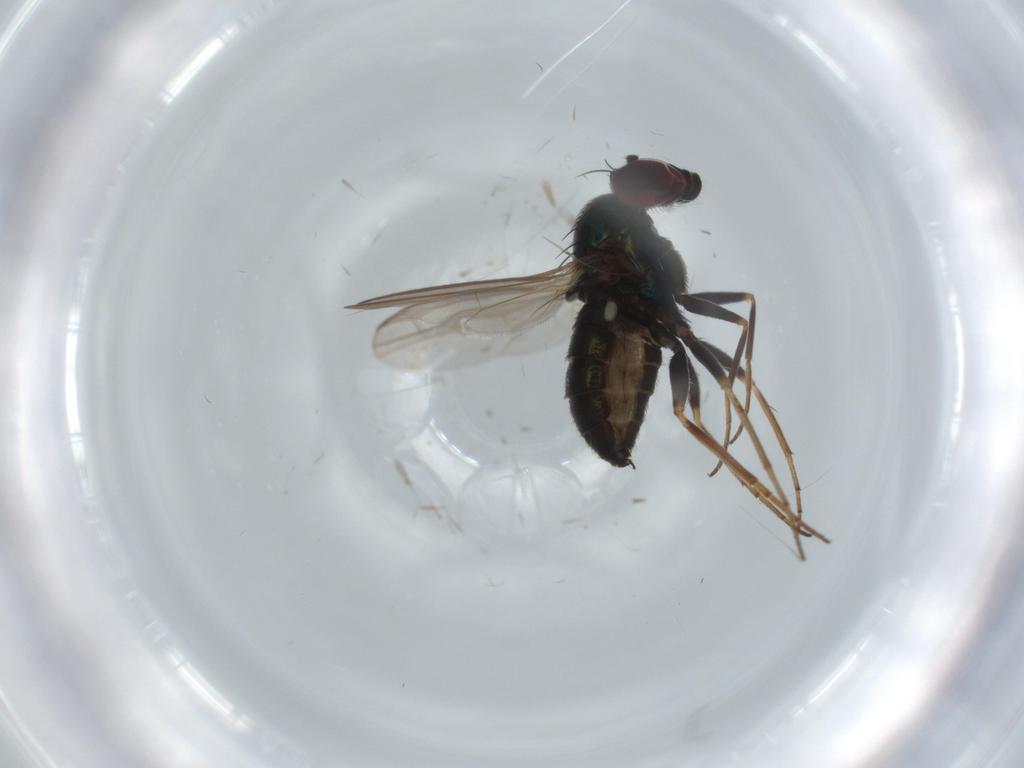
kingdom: Animalia
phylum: Arthropoda
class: Insecta
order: Diptera
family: Dolichopodidae
